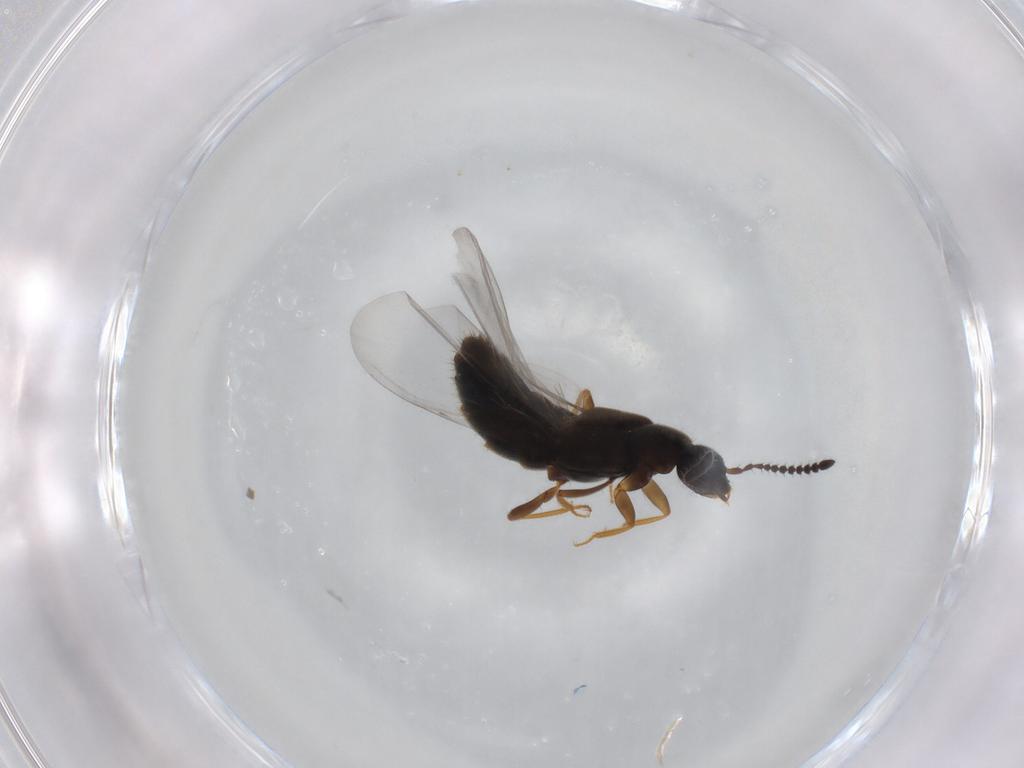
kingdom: Animalia
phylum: Arthropoda
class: Insecta
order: Coleoptera
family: Staphylinidae
